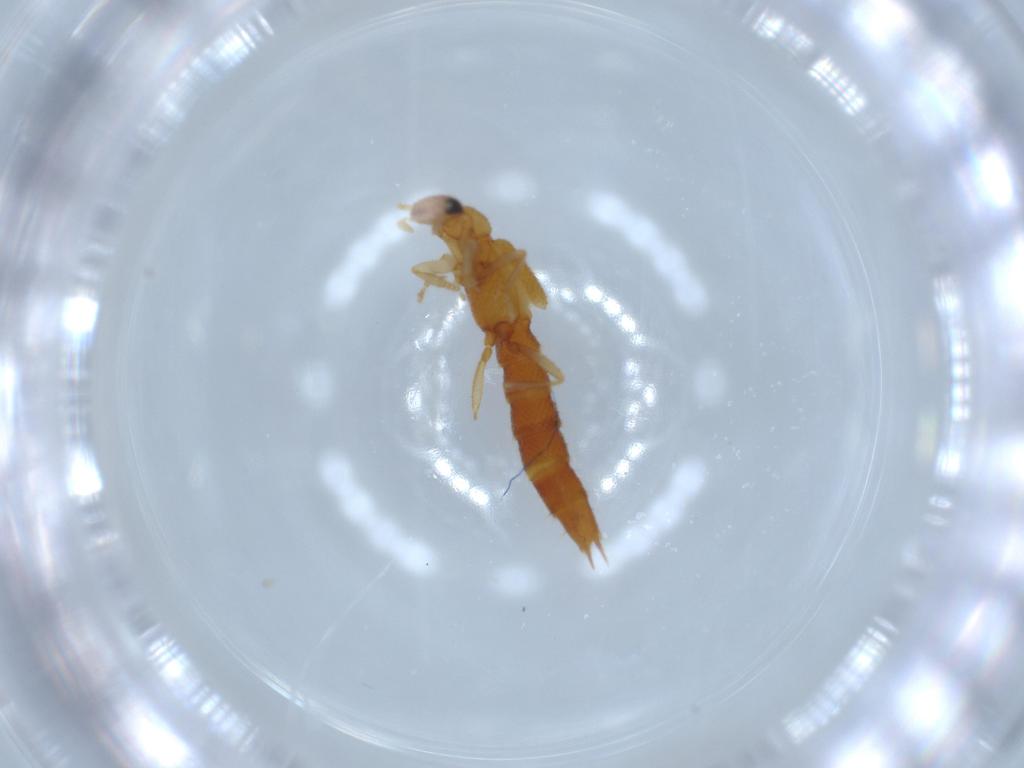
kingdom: Animalia
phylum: Arthropoda
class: Insecta
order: Coleoptera
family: Staphylinidae
